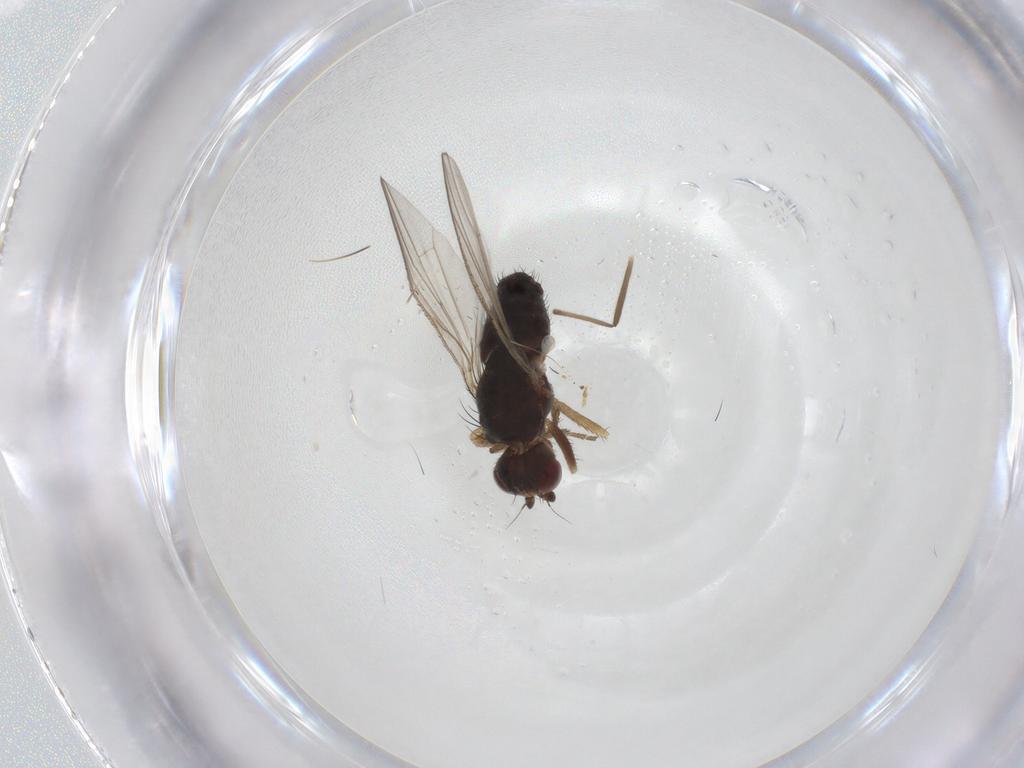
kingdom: Animalia
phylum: Arthropoda
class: Insecta
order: Diptera
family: Heleomyzidae
